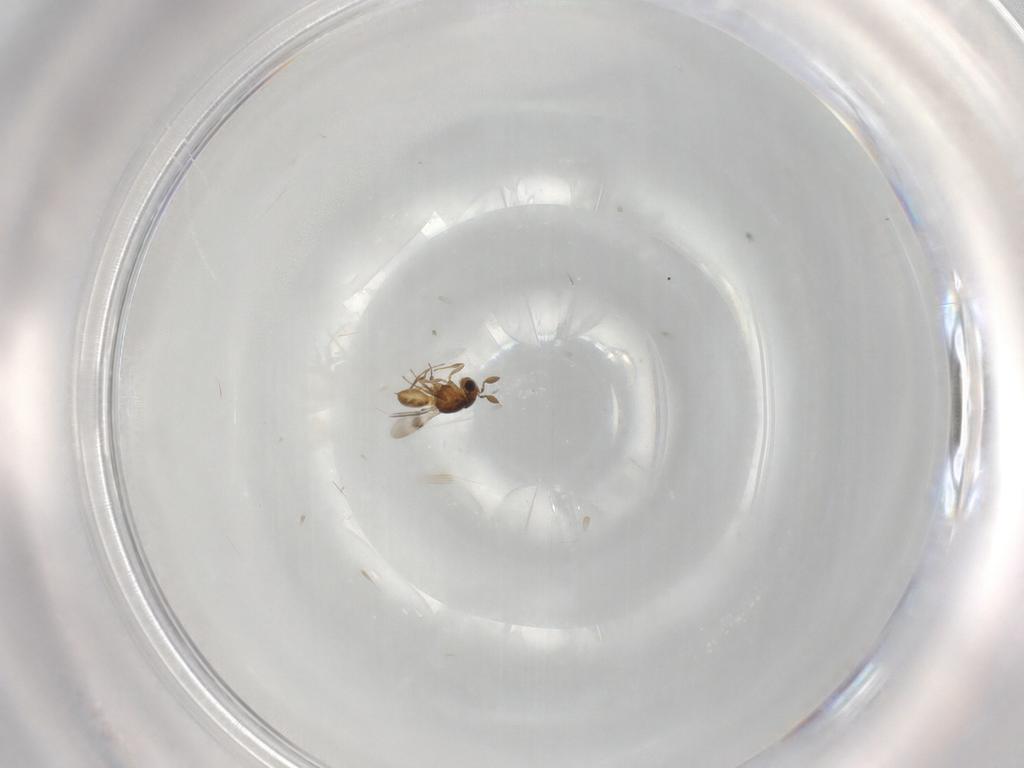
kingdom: Animalia
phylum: Arthropoda
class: Insecta
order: Hymenoptera
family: Scelionidae
